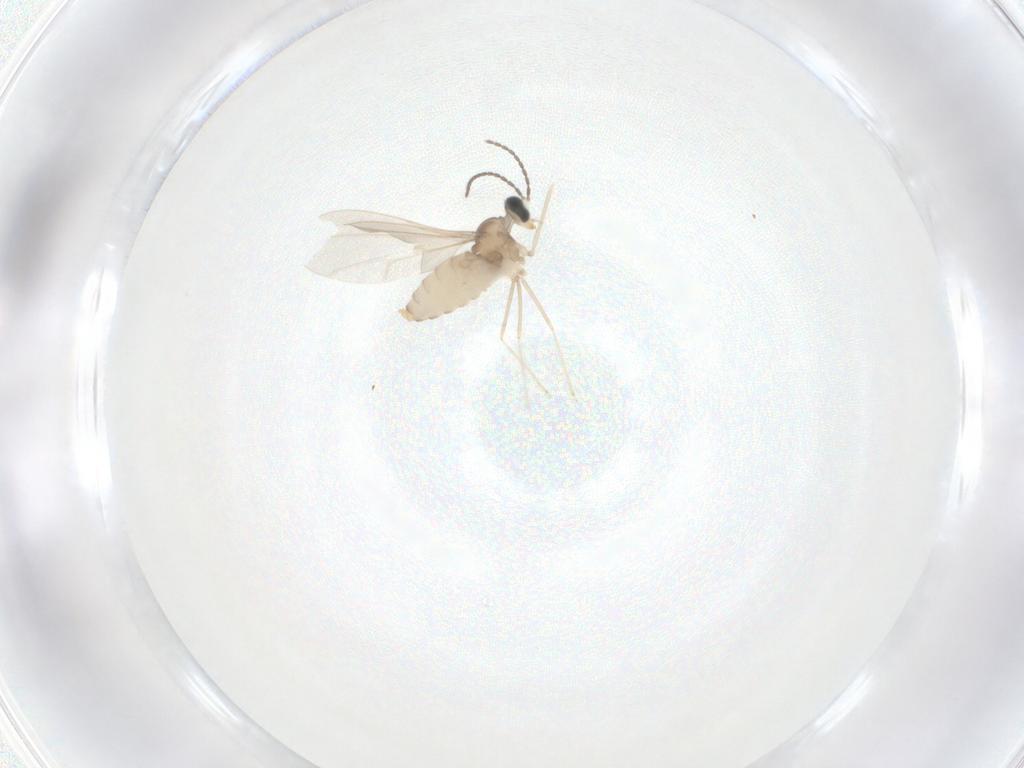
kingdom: Animalia
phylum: Arthropoda
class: Insecta
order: Diptera
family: Cecidomyiidae
